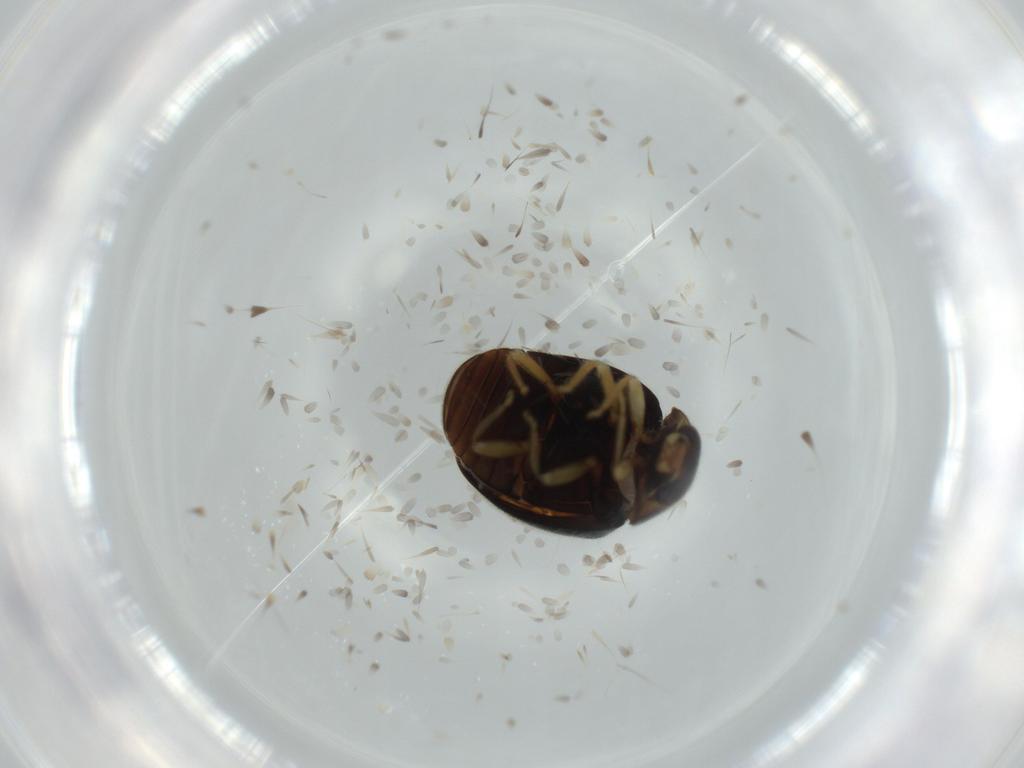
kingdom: Animalia
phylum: Arthropoda
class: Insecta
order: Coleoptera
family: Coccinellidae
